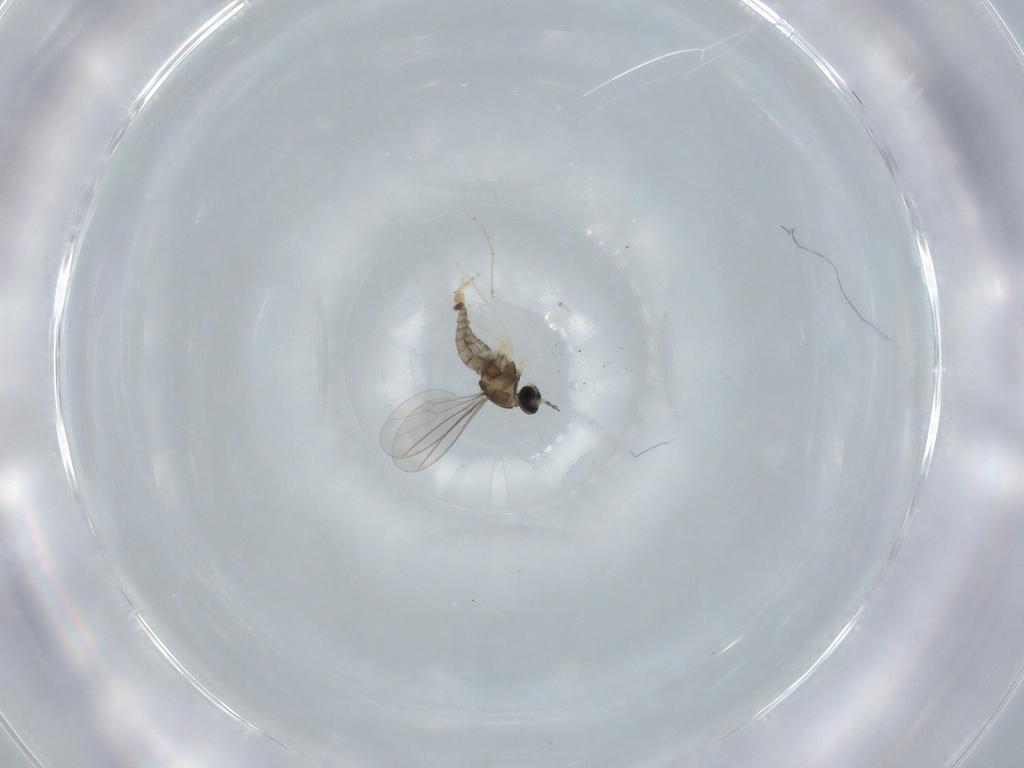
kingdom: Animalia
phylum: Arthropoda
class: Insecta
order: Diptera
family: Cecidomyiidae
